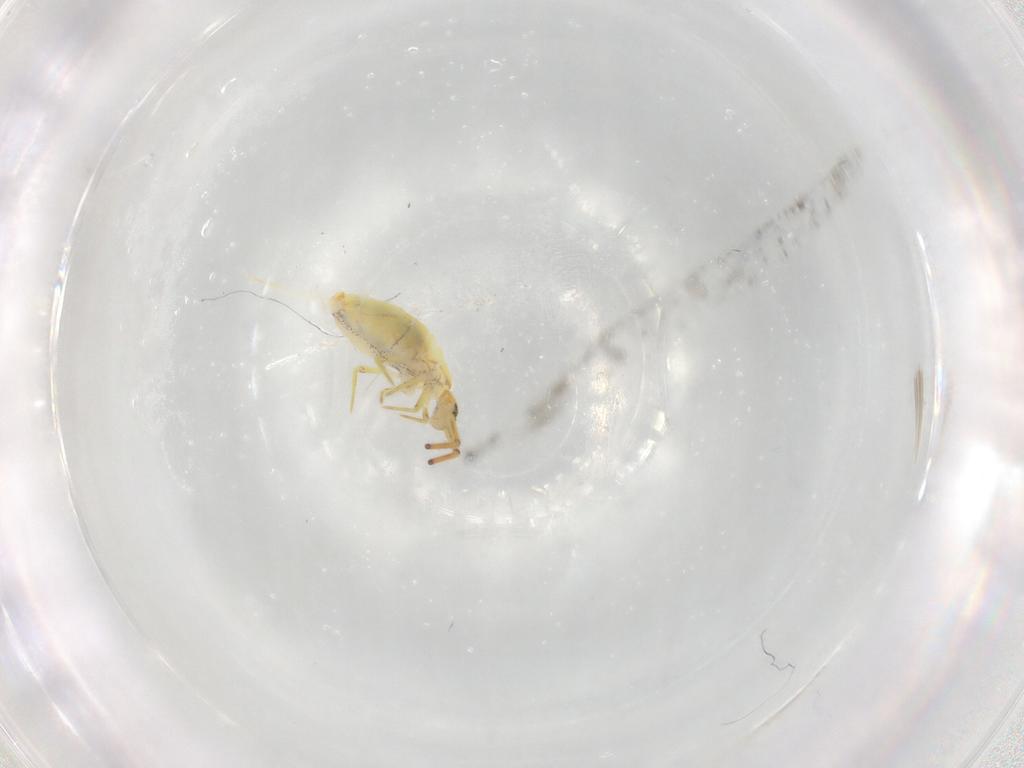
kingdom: Animalia
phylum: Arthropoda
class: Collembola
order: Entomobryomorpha
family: Entomobryidae
